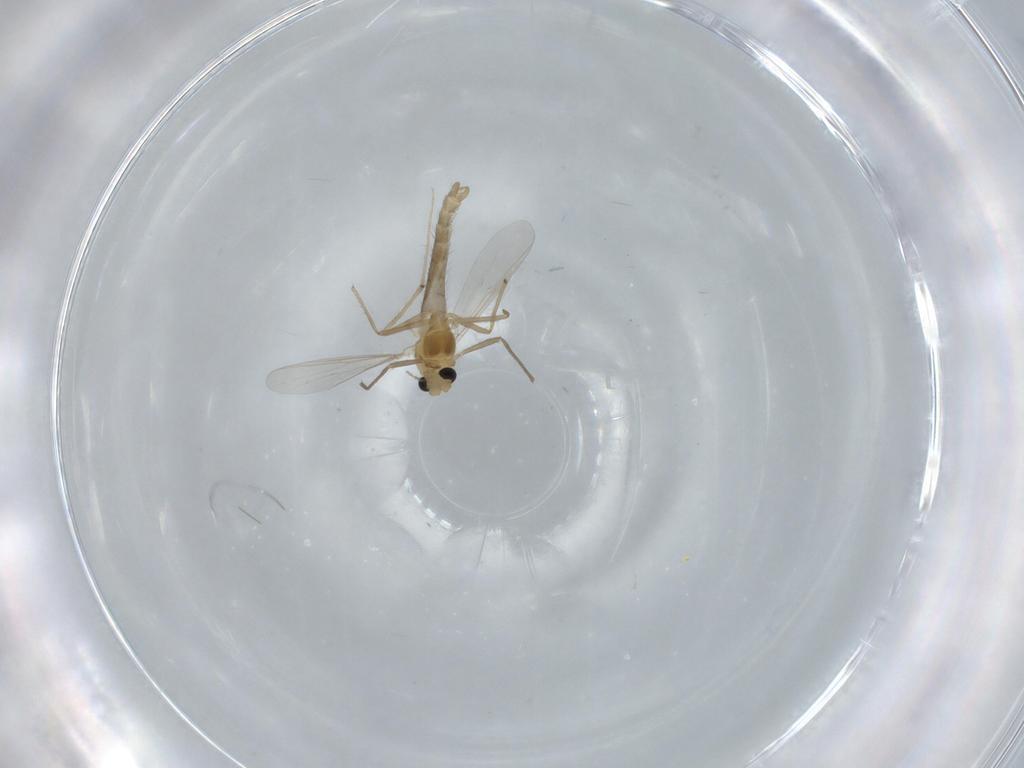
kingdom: Animalia
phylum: Arthropoda
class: Insecta
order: Diptera
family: Chironomidae
